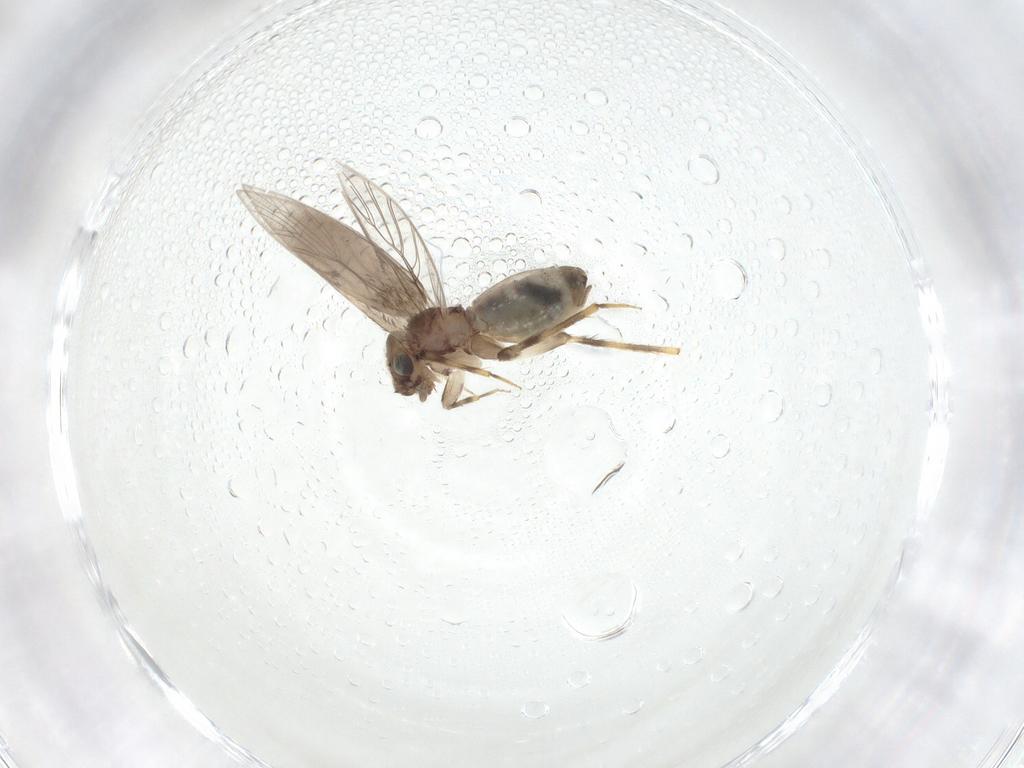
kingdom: Animalia
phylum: Arthropoda
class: Insecta
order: Psocodea
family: Lepidopsocidae
